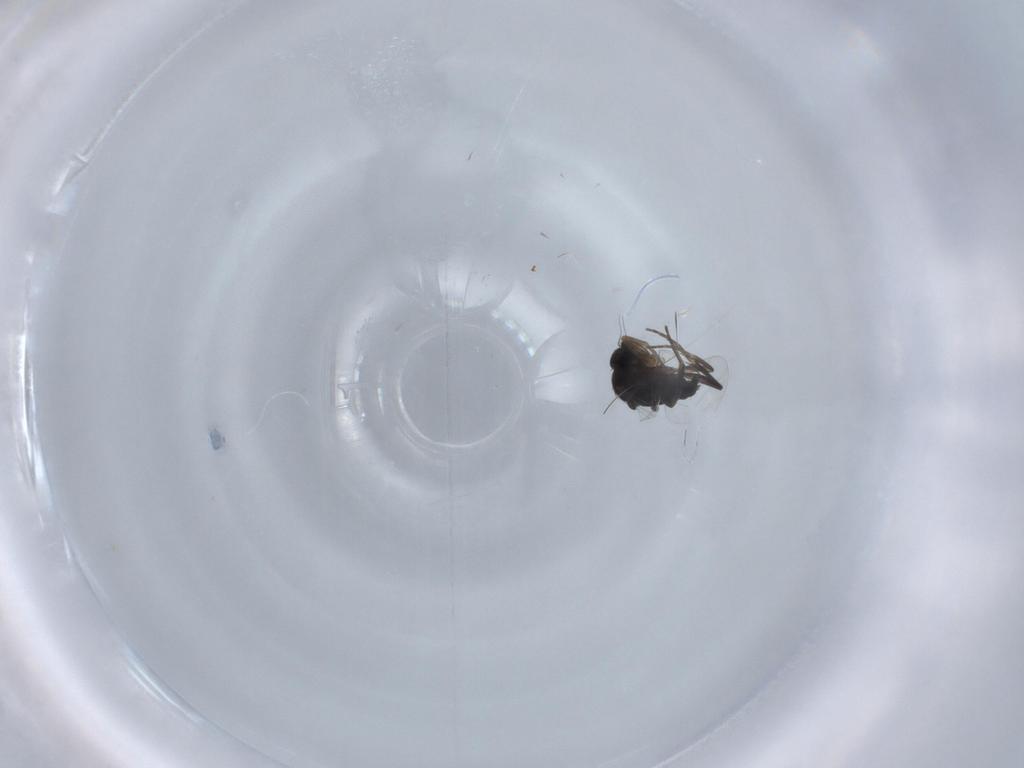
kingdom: Animalia
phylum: Arthropoda
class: Insecta
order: Diptera
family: Phoridae
